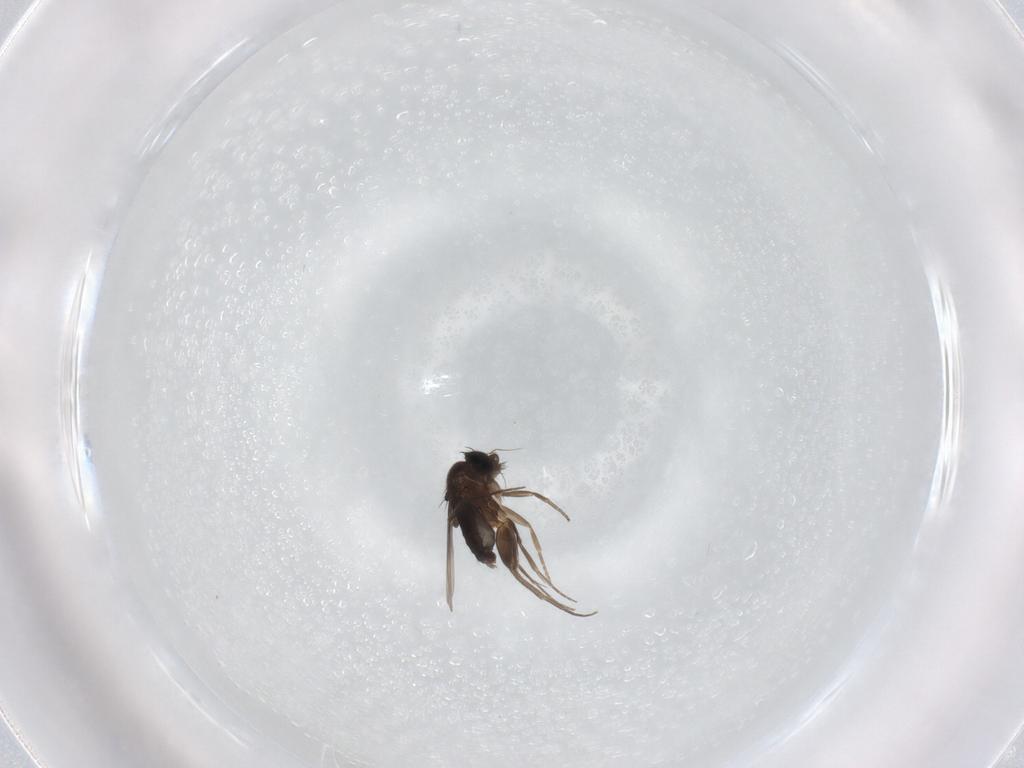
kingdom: Animalia
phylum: Arthropoda
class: Insecta
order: Diptera
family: Phoridae
